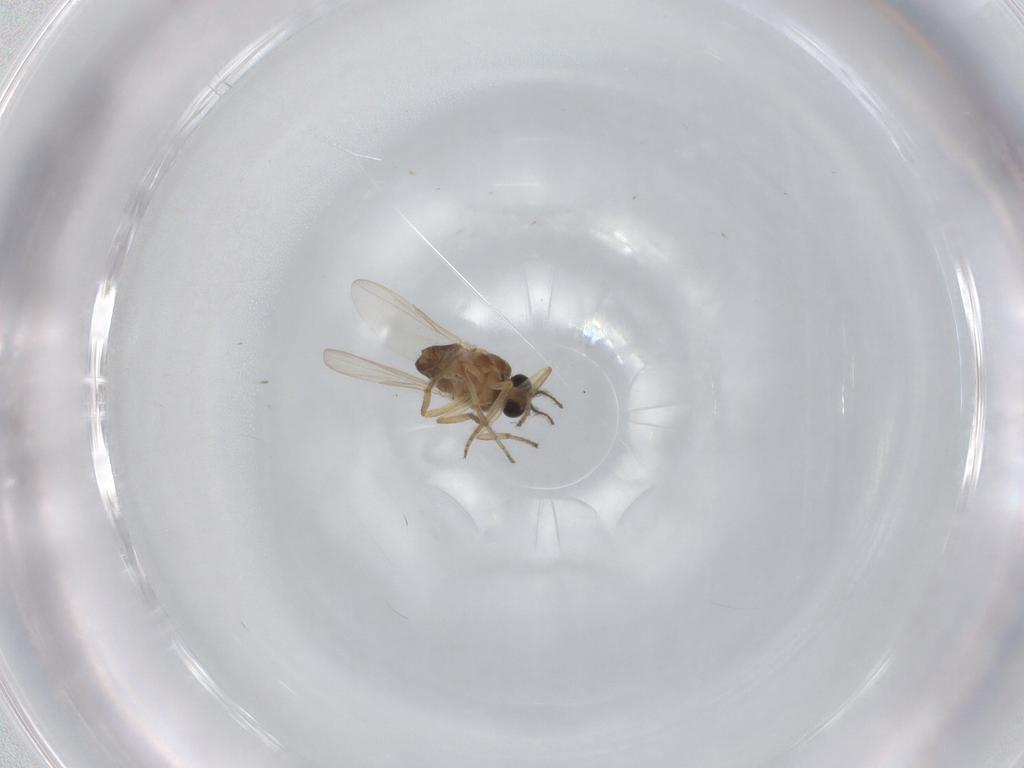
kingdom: Animalia
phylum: Arthropoda
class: Insecta
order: Diptera
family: Ceratopogonidae
